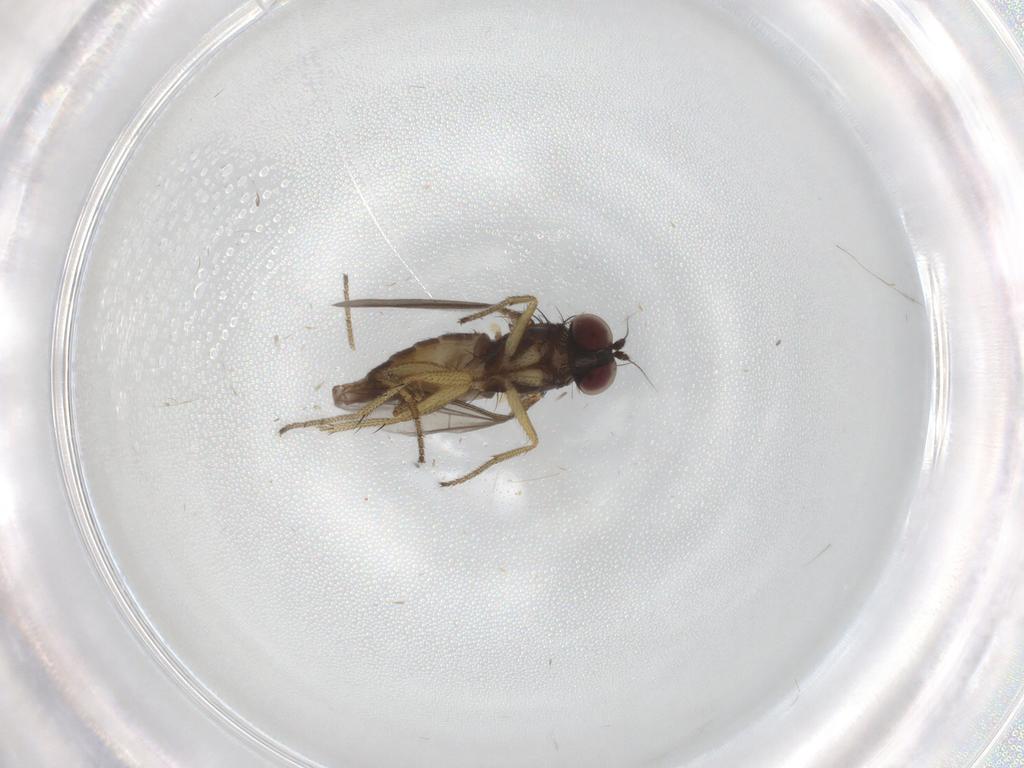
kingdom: Animalia
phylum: Arthropoda
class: Insecta
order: Diptera
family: Dolichopodidae
